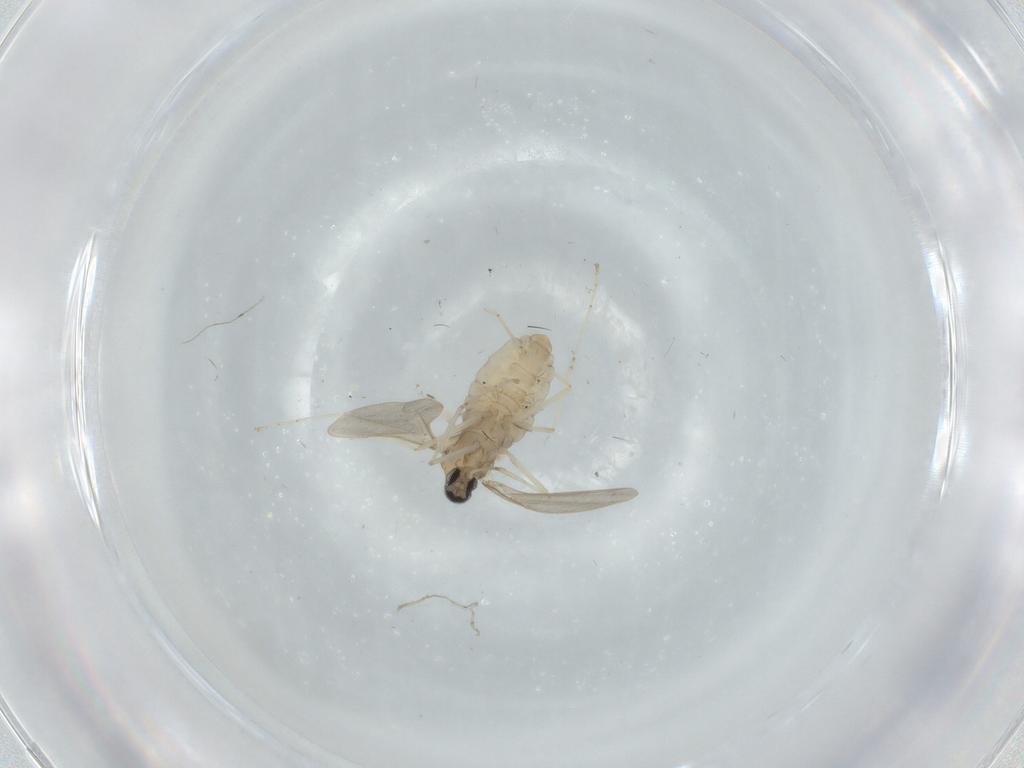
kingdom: Animalia
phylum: Arthropoda
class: Insecta
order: Diptera
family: Cecidomyiidae
